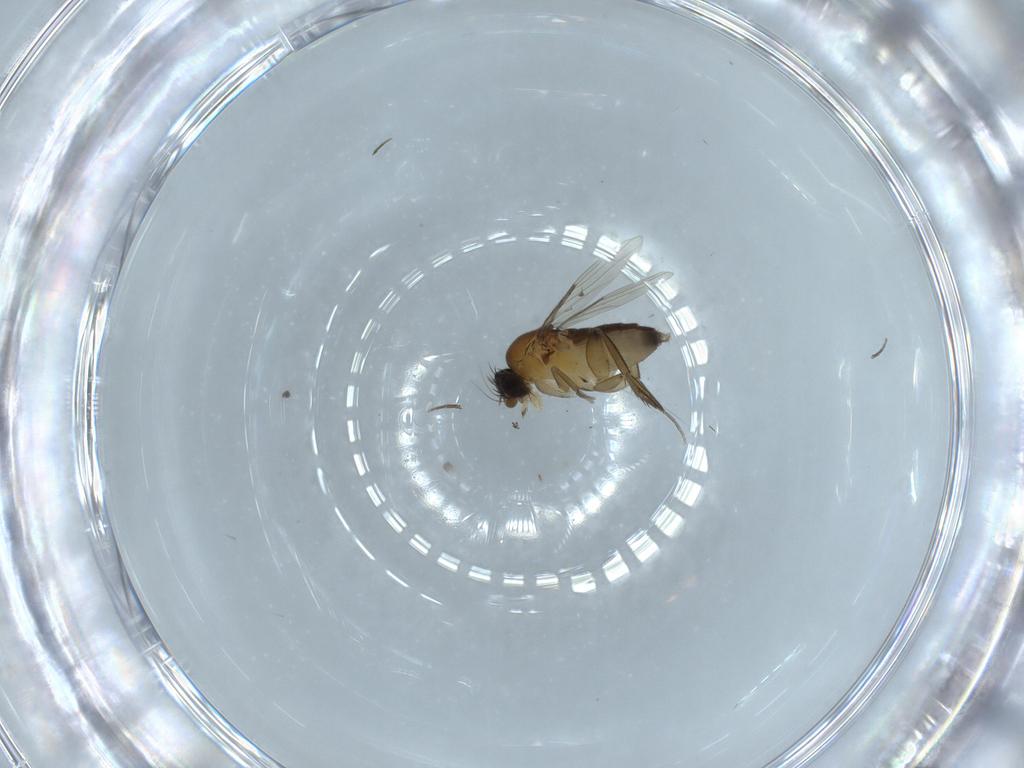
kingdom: Animalia
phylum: Arthropoda
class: Insecta
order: Diptera
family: Phoridae
